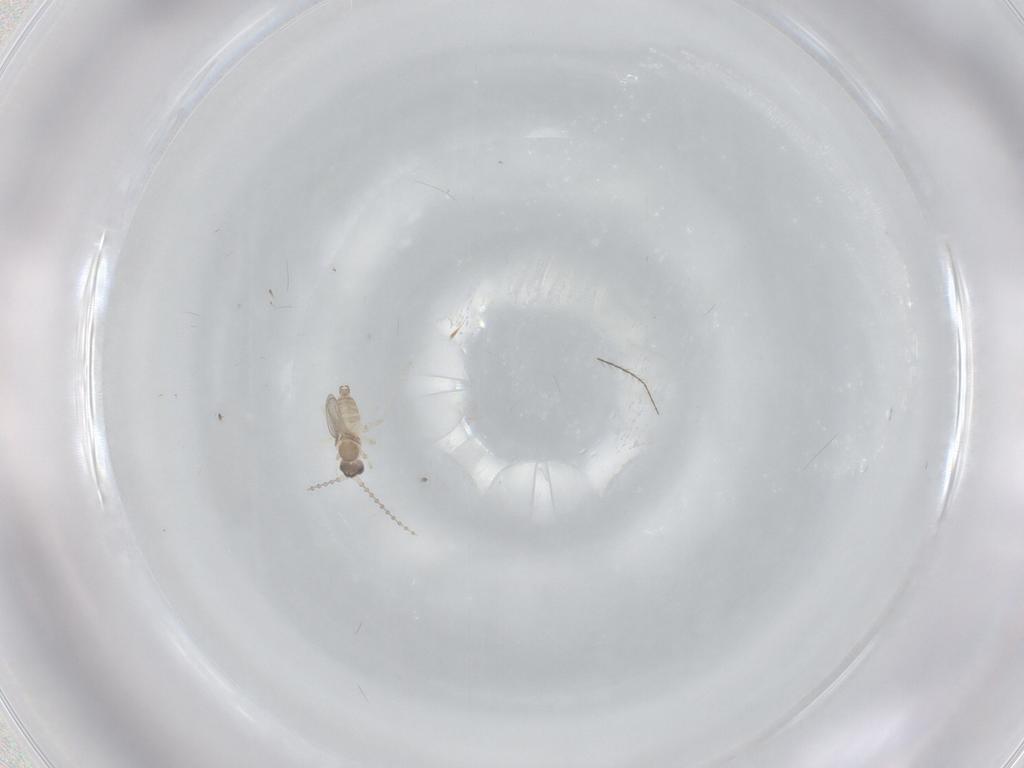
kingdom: Animalia
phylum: Arthropoda
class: Insecta
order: Diptera
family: Cecidomyiidae
